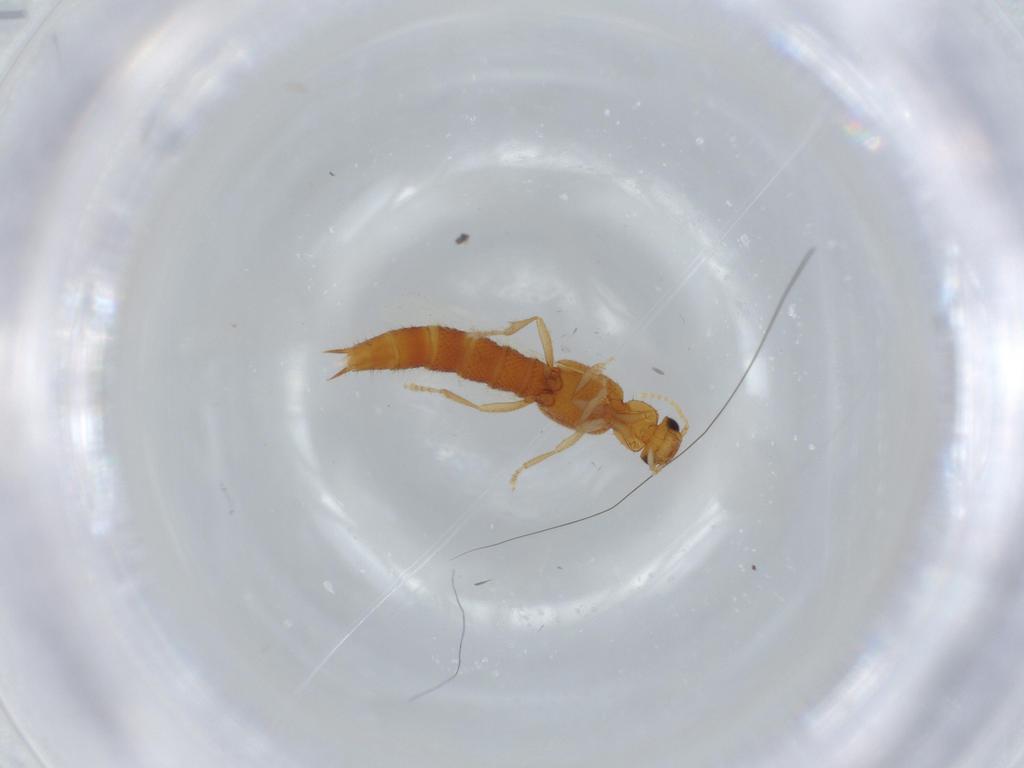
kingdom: Animalia
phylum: Arthropoda
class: Insecta
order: Coleoptera
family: Staphylinidae
